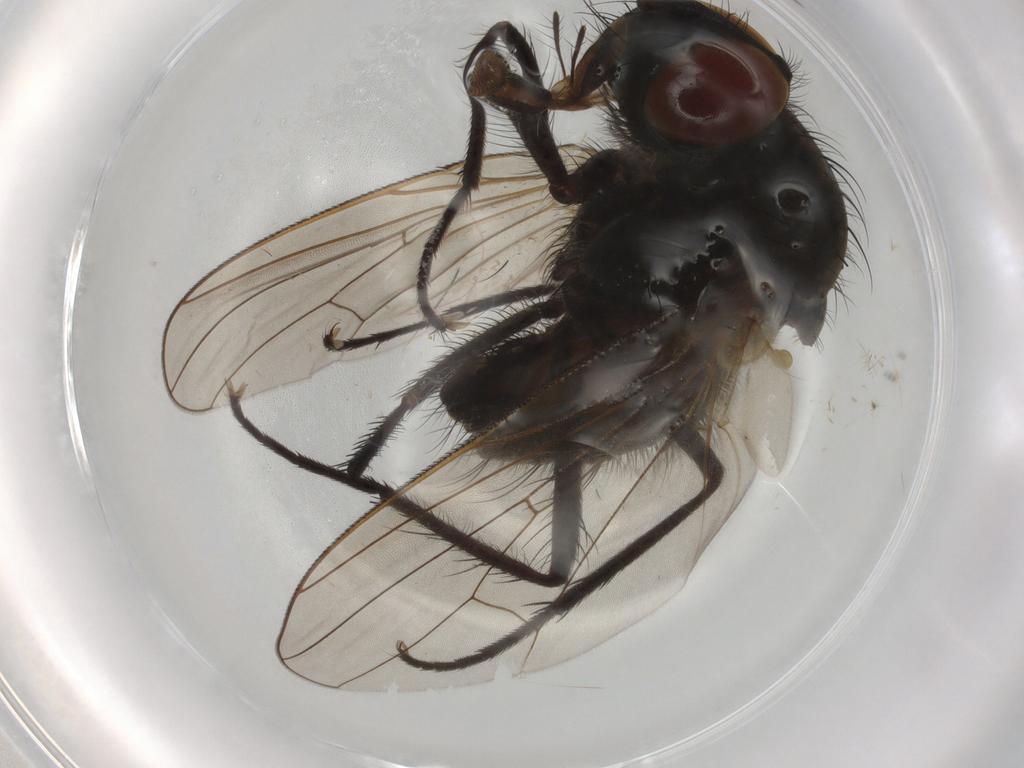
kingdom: Animalia
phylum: Arthropoda
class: Insecta
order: Diptera
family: Anthomyiidae
